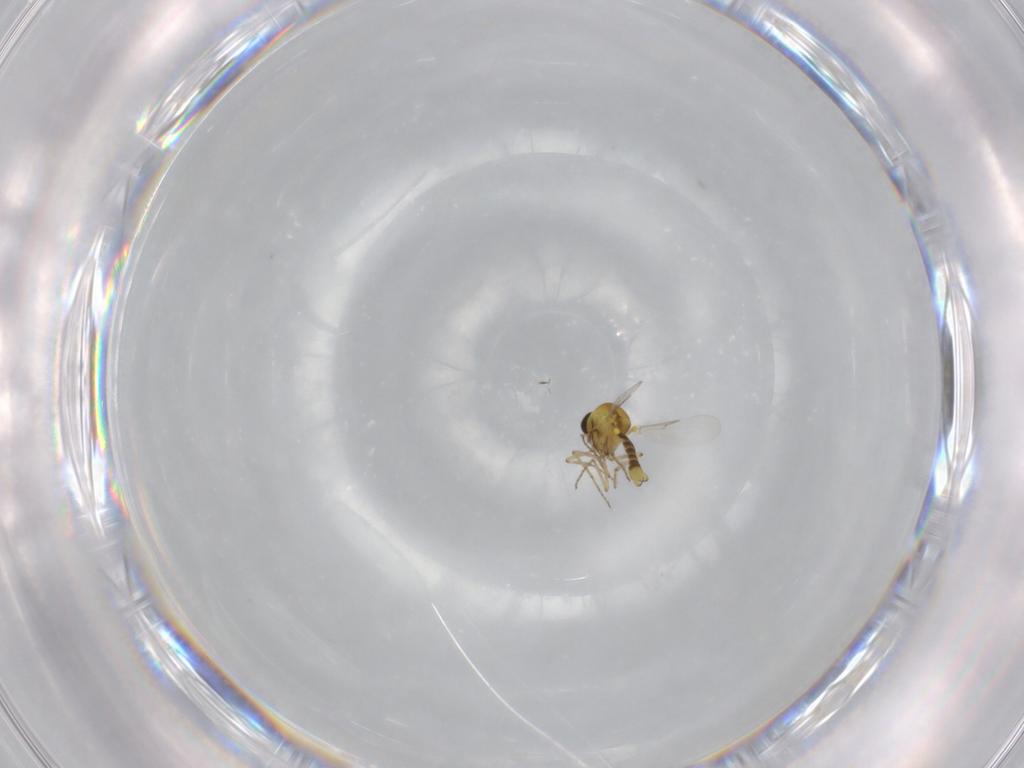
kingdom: Animalia
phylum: Arthropoda
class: Insecta
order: Diptera
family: Ceratopogonidae
